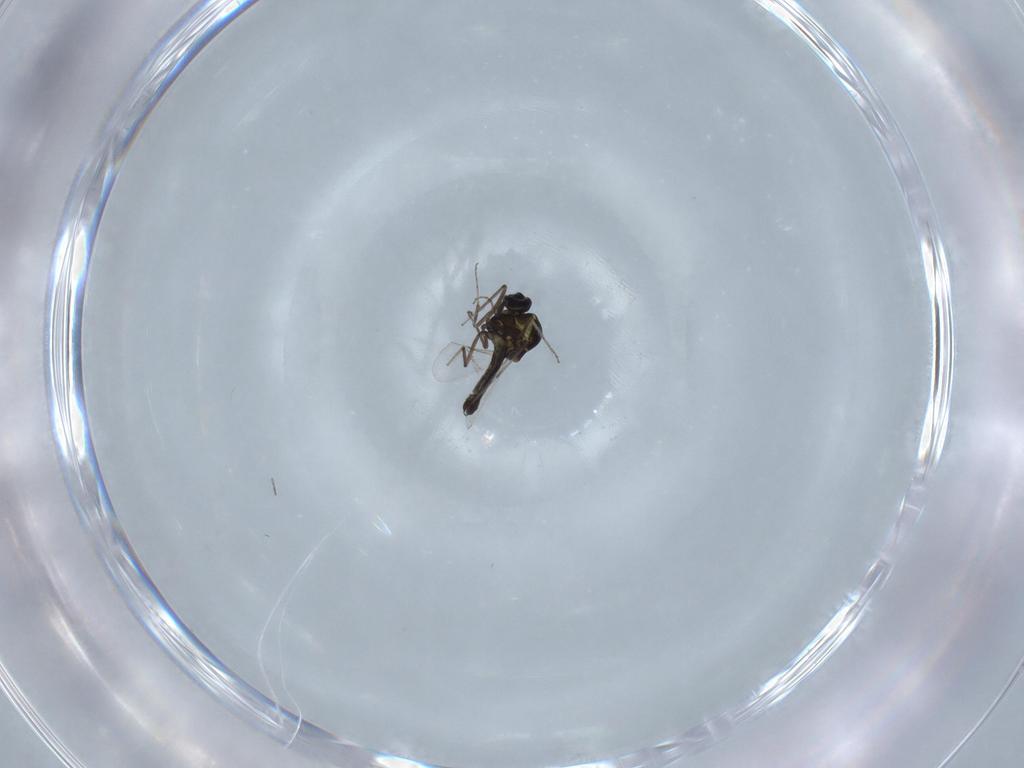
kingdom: Animalia
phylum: Arthropoda
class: Insecta
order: Diptera
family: Ceratopogonidae
